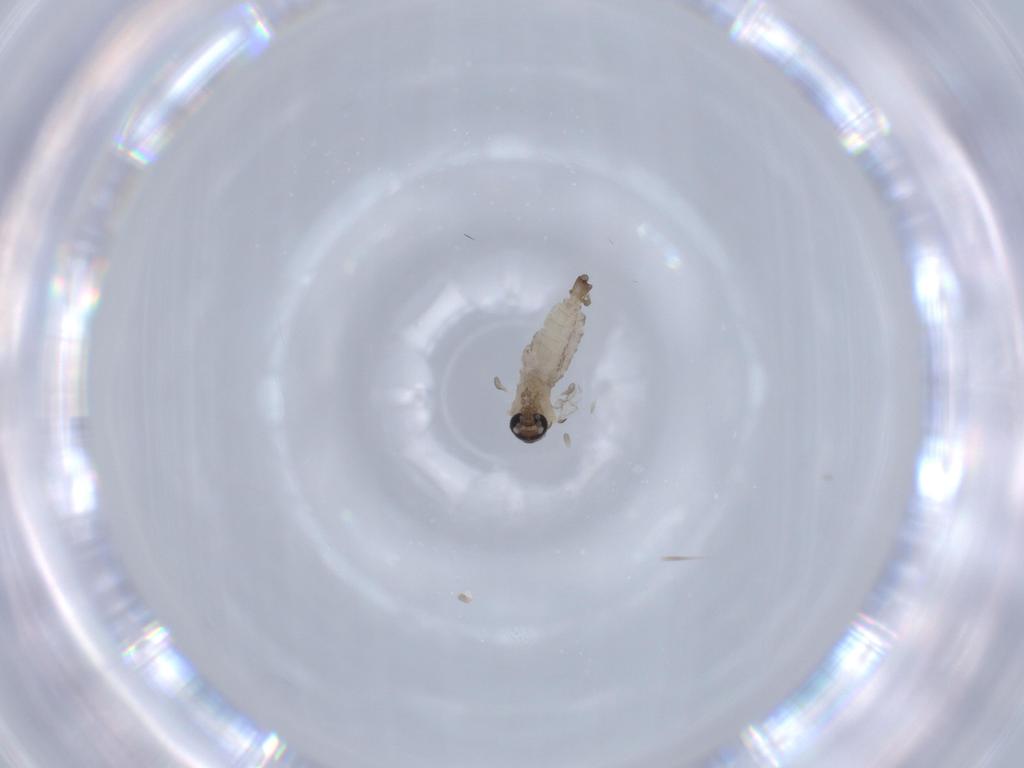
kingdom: Animalia
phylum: Arthropoda
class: Insecta
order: Diptera
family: Psychodidae
